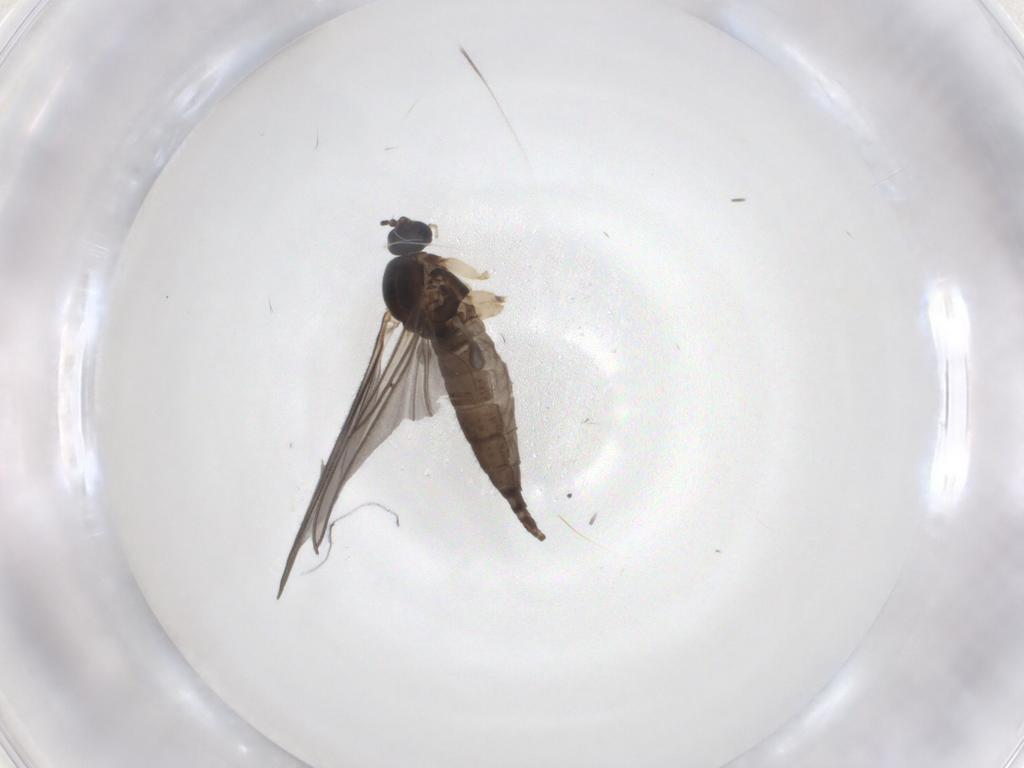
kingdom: Animalia
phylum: Arthropoda
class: Insecta
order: Diptera
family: Sciaridae
